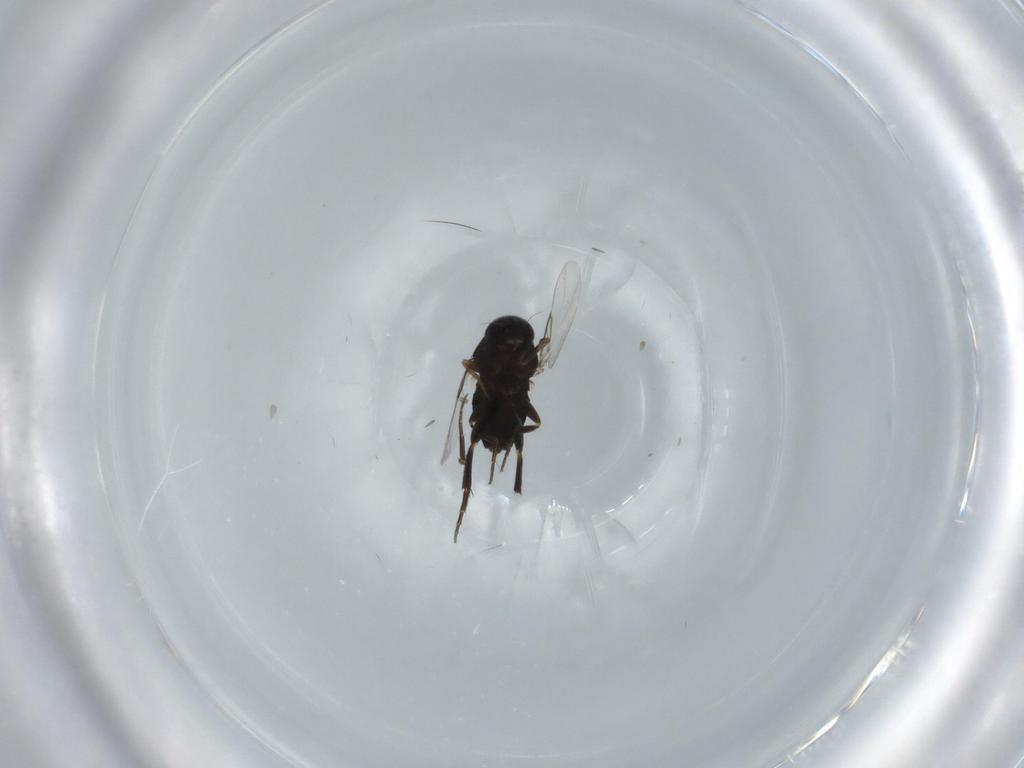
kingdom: Animalia
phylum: Arthropoda
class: Insecta
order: Diptera
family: Phoridae
